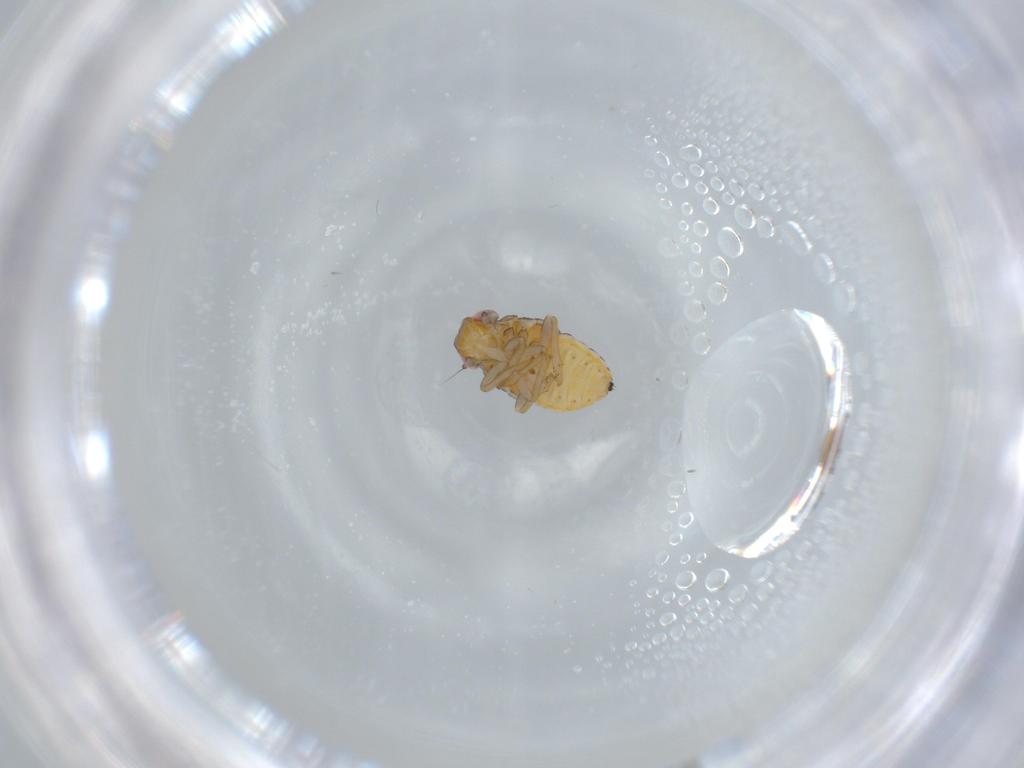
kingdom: Animalia
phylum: Arthropoda
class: Insecta
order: Hemiptera
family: Issidae
